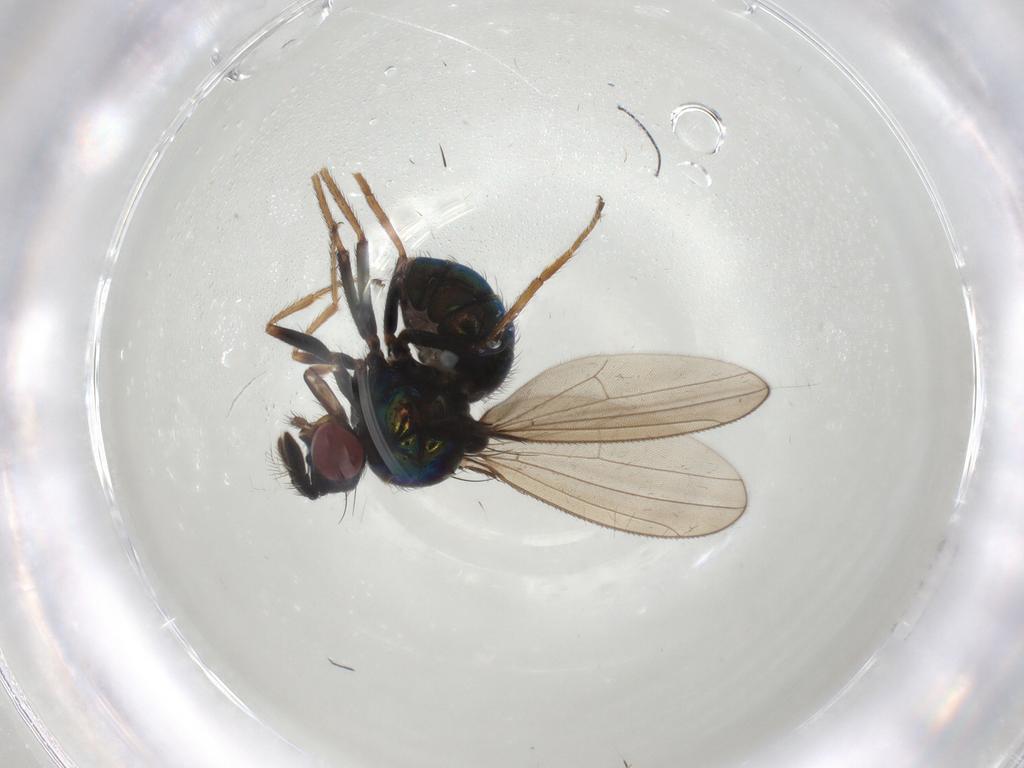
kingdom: Animalia
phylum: Arthropoda
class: Insecta
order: Diptera
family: Ephydridae
